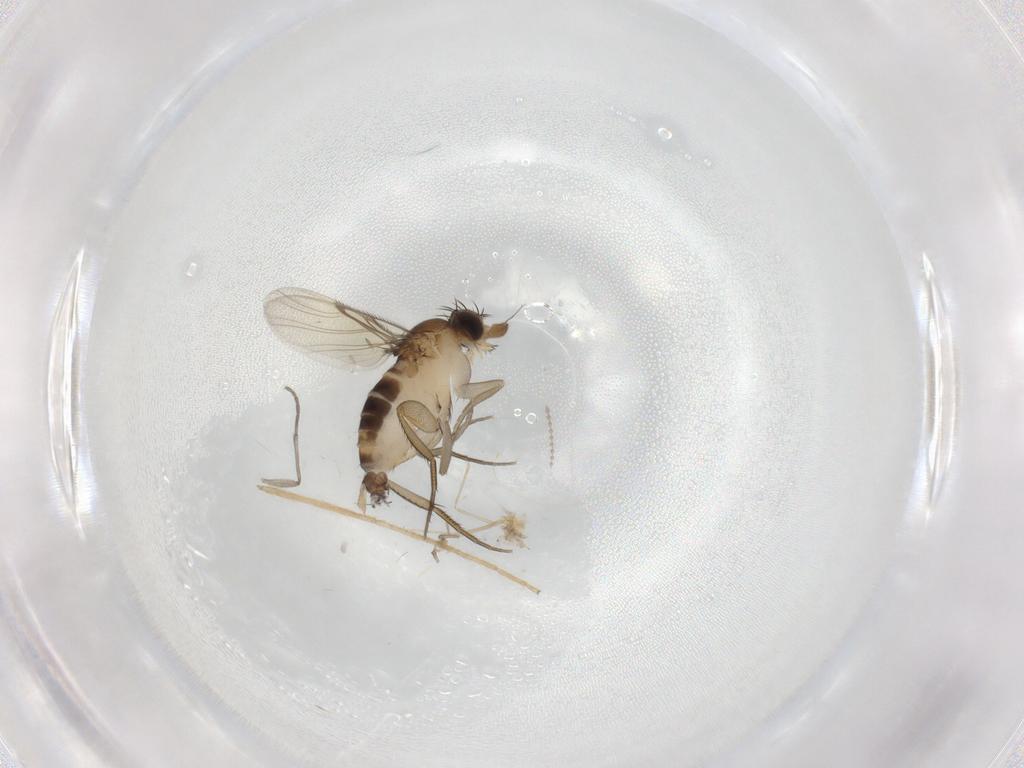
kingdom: Animalia
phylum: Arthropoda
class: Insecta
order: Diptera
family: Phoridae
